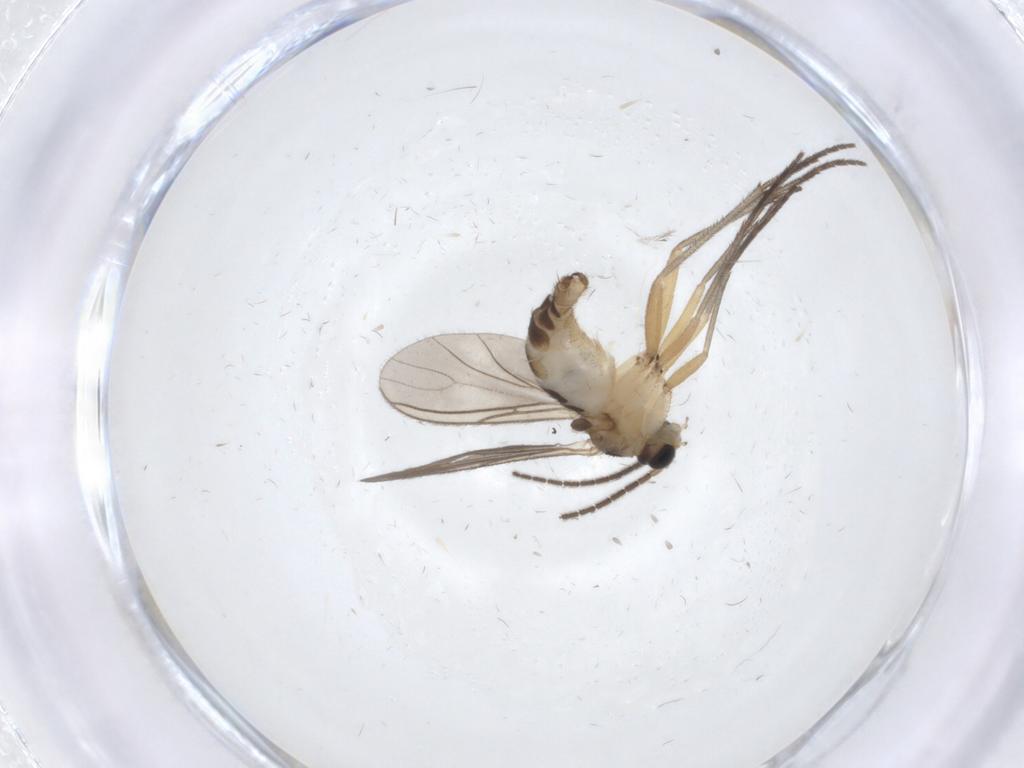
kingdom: Animalia
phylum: Arthropoda
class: Insecta
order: Diptera
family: Sciaridae
